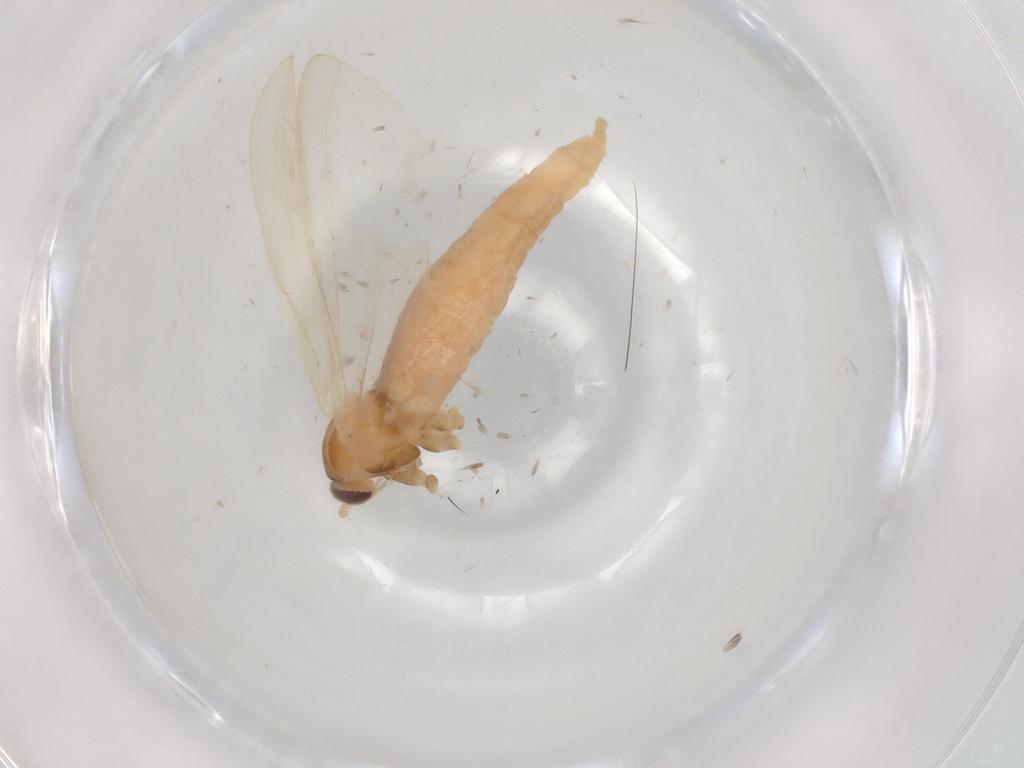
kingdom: Animalia
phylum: Arthropoda
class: Insecta
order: Diptera
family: Cecidomyiidae
